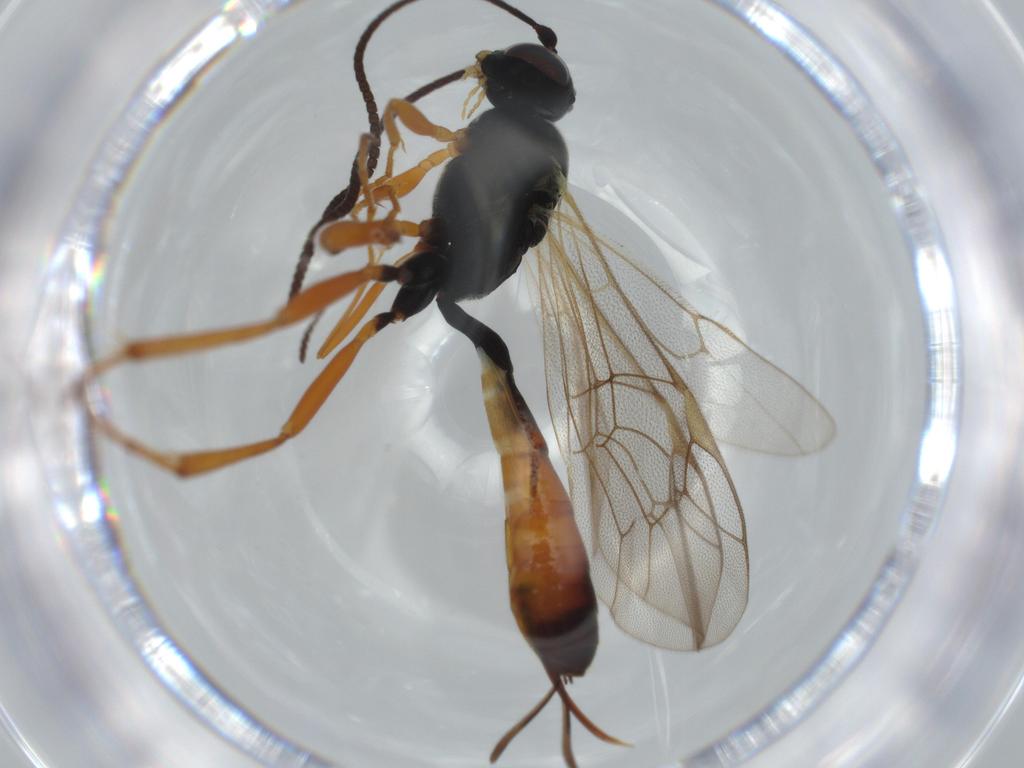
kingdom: Animalia
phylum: Arthropoda
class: Insecta
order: Hymenoptera
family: Ichneumonidae
